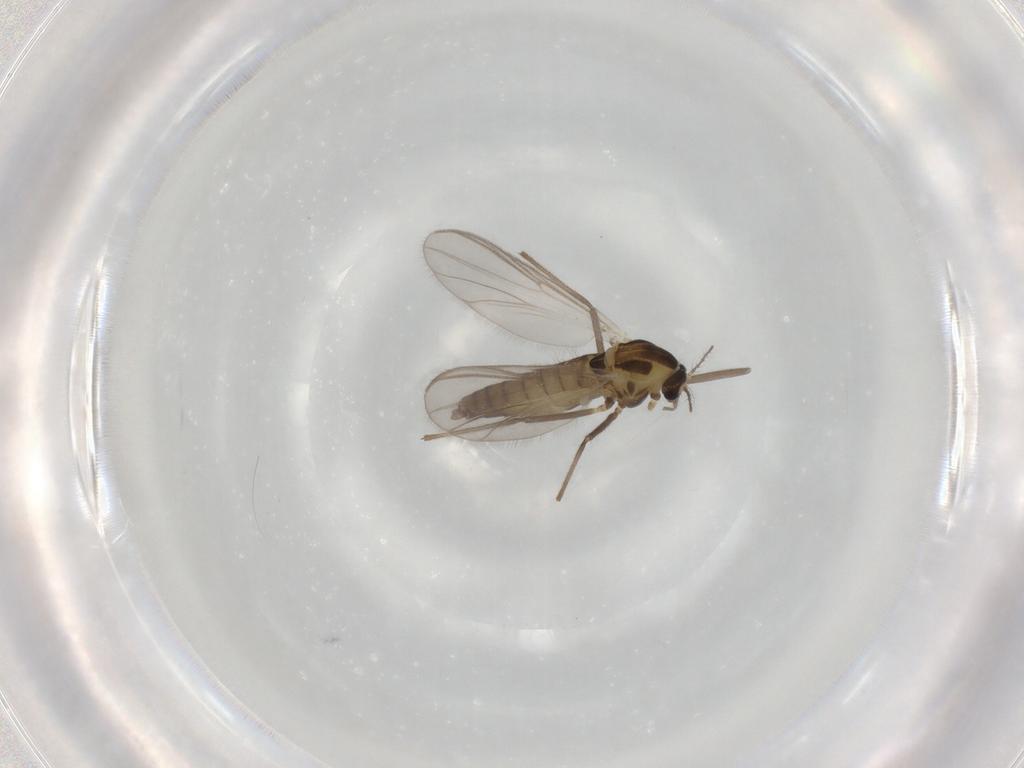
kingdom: Animalia
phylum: Arthropoda
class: Insecta
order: Diptera
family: Chironomidae
